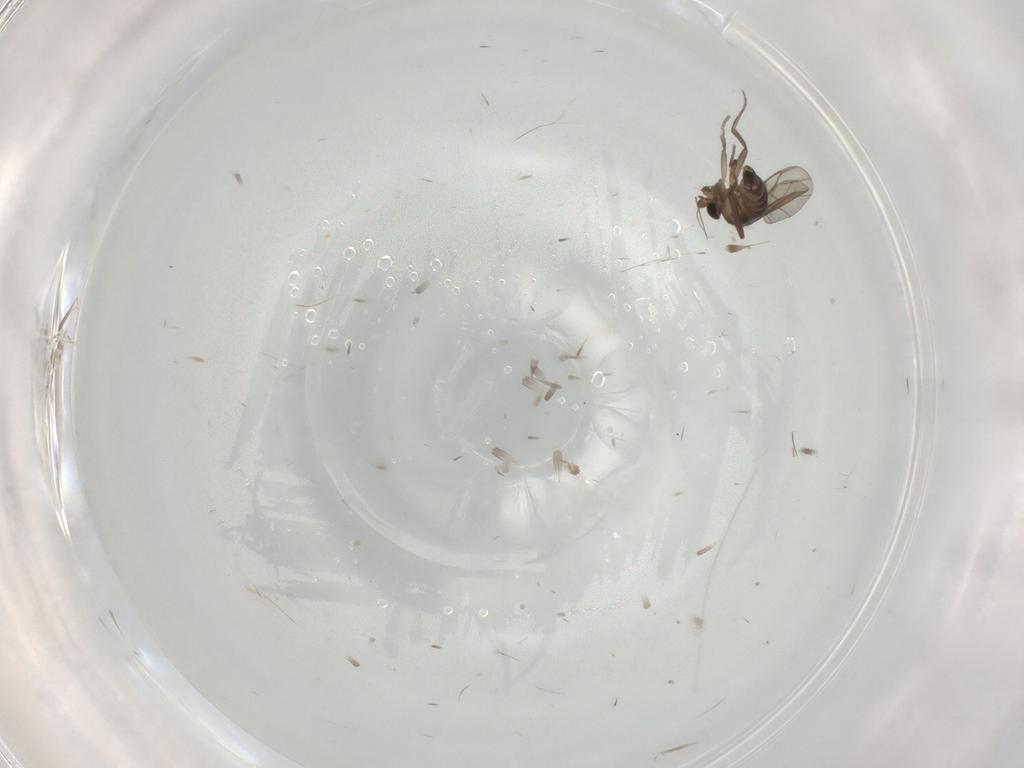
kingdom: Animalia
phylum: Arthropoda
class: Insecta
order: Diptera
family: Phoridae
